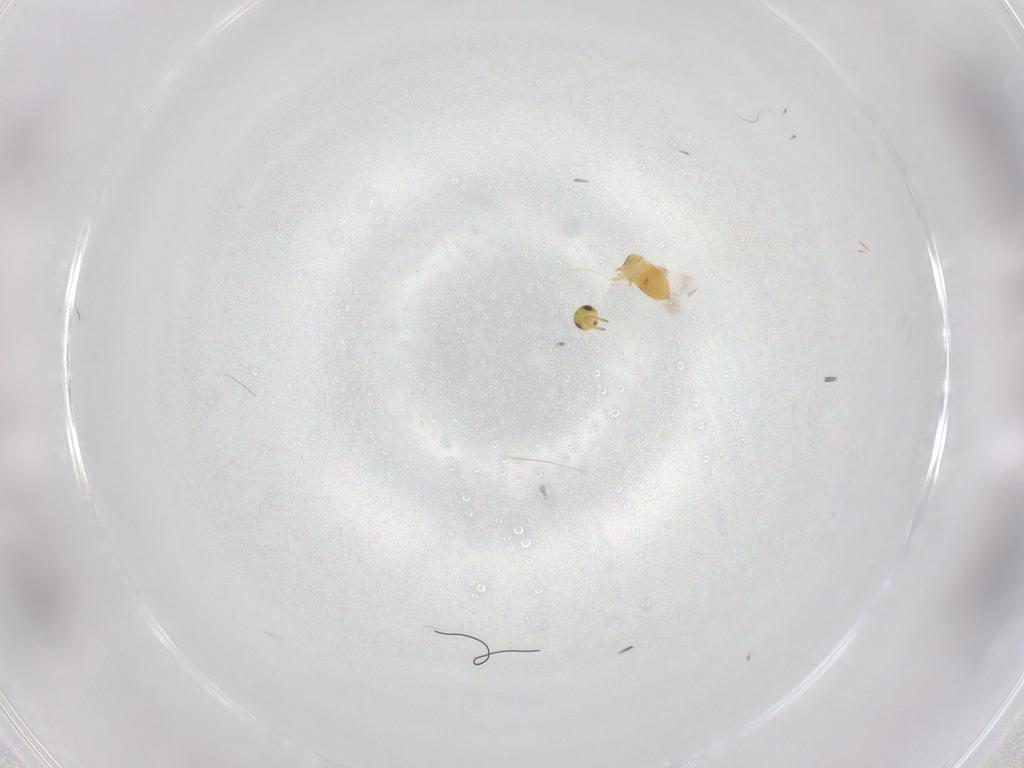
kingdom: Animalia
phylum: Arthropoda
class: Insecta
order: Hymenoptera
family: Signiphoridae
